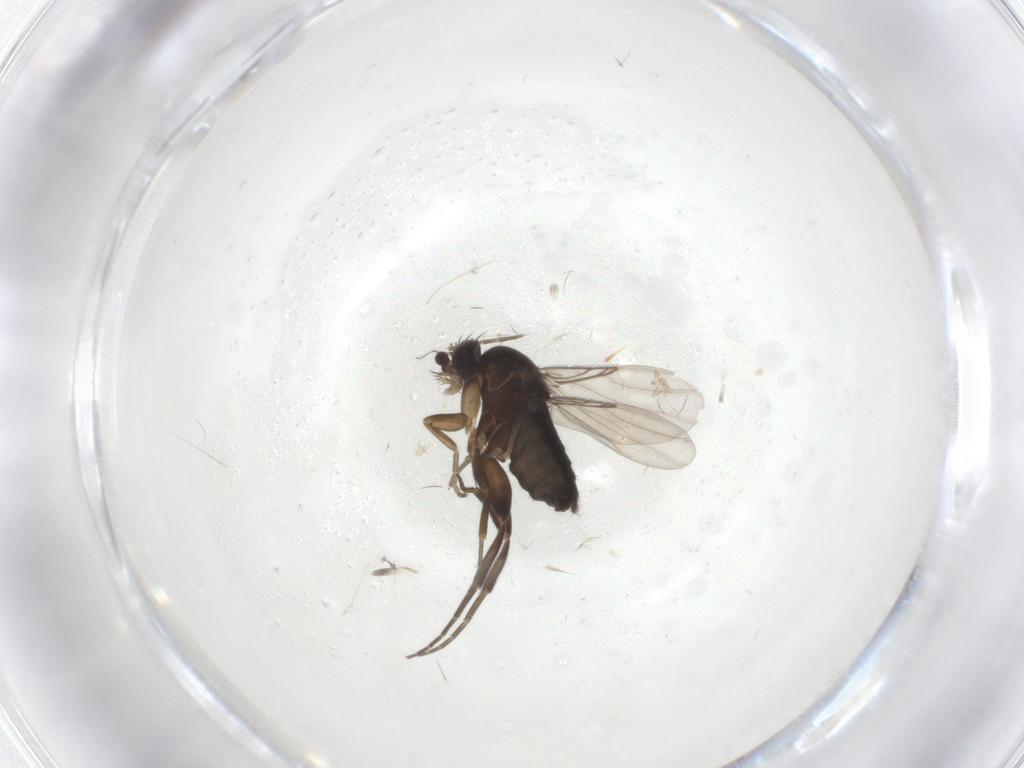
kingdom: Animalia
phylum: Arthropoda
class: Insecta
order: Diptera
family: Phoridae
